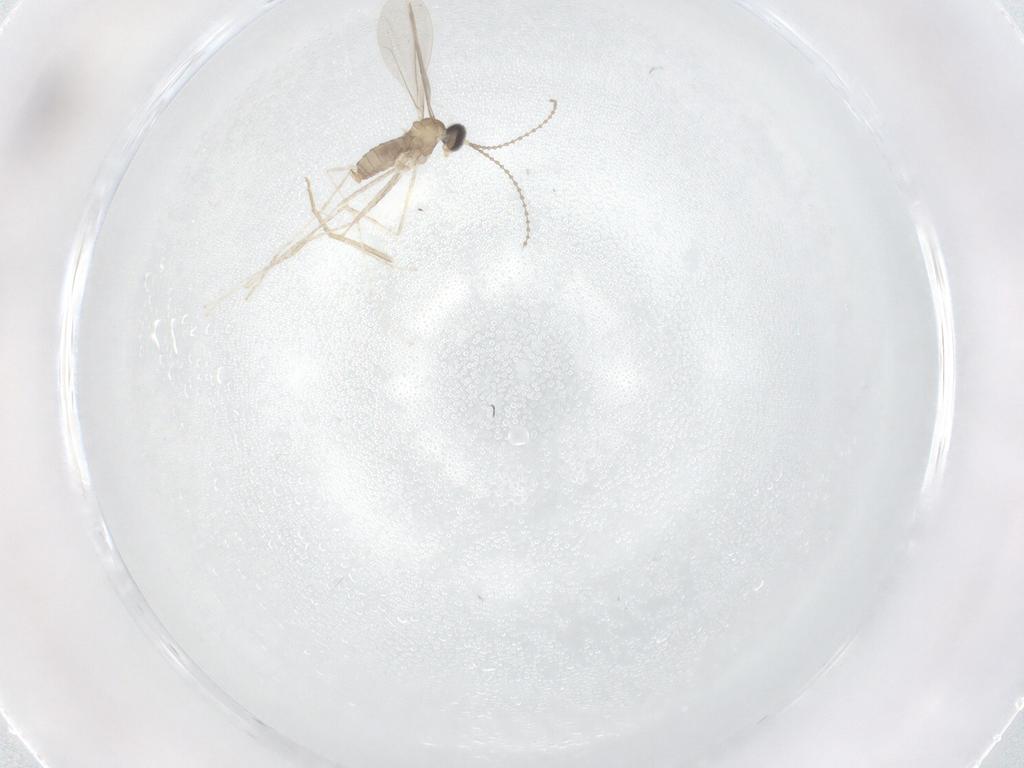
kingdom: Animalia
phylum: Arthropoda
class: Insecta
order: Diptera
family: Cecidomyiidae
